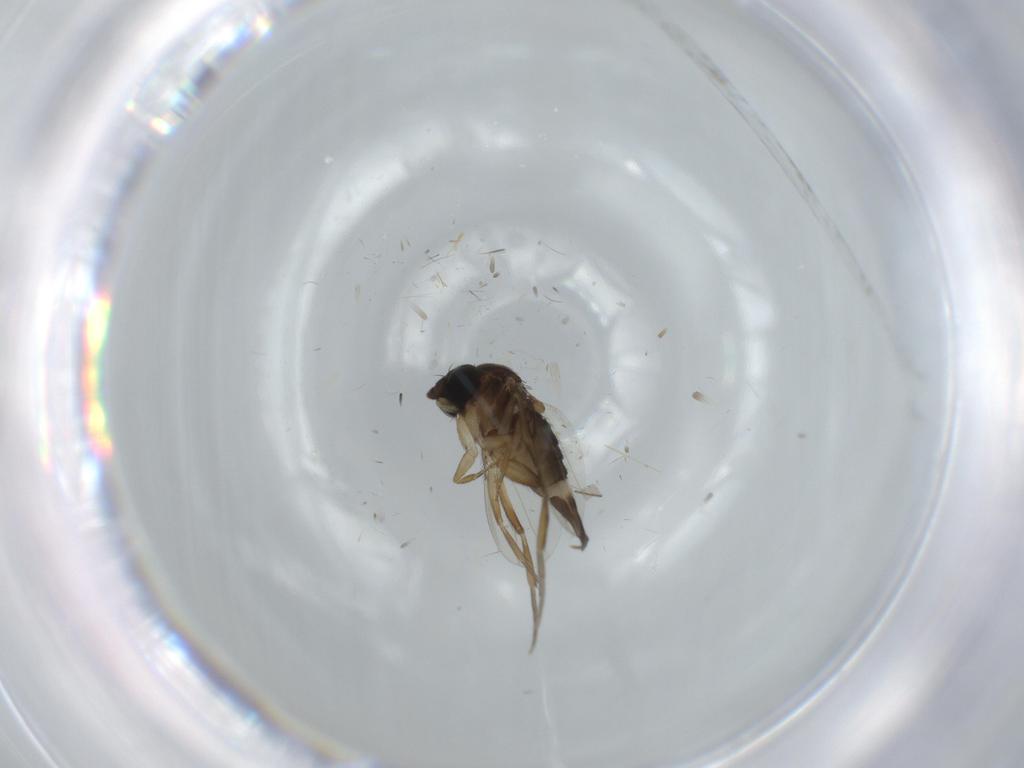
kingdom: Animalia
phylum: Arthropoda
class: Insecta
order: Diptera
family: Phoridae
